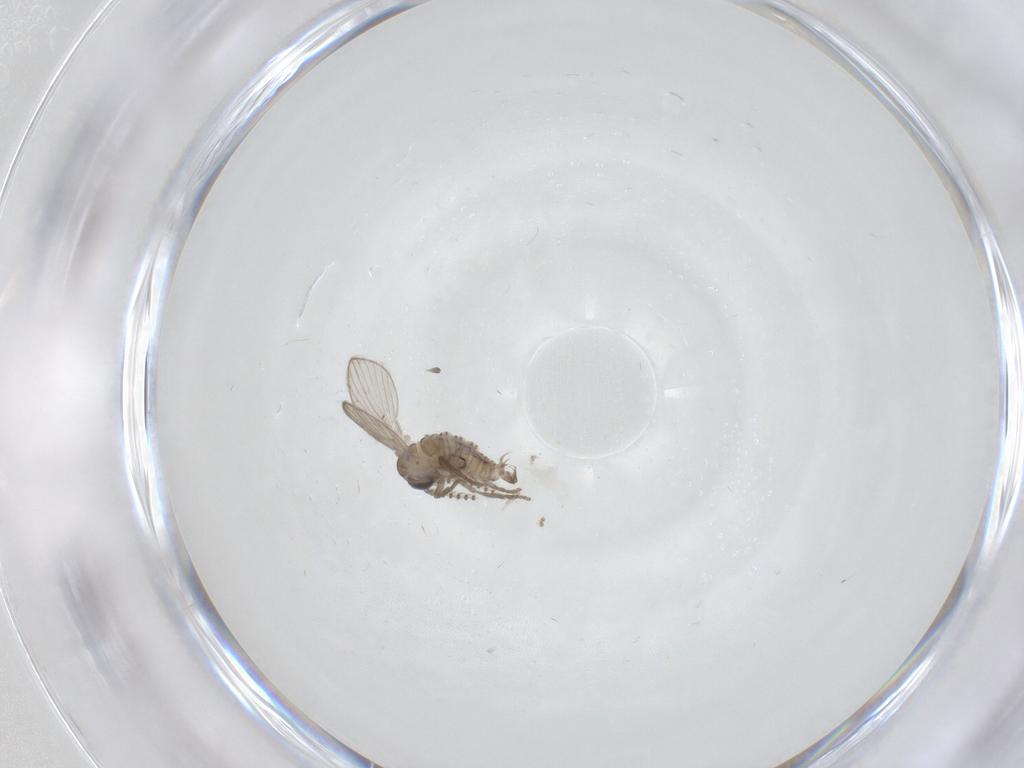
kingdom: Animalia
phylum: Arthropoda
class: Insecta
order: Diptera
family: Psychodidae
